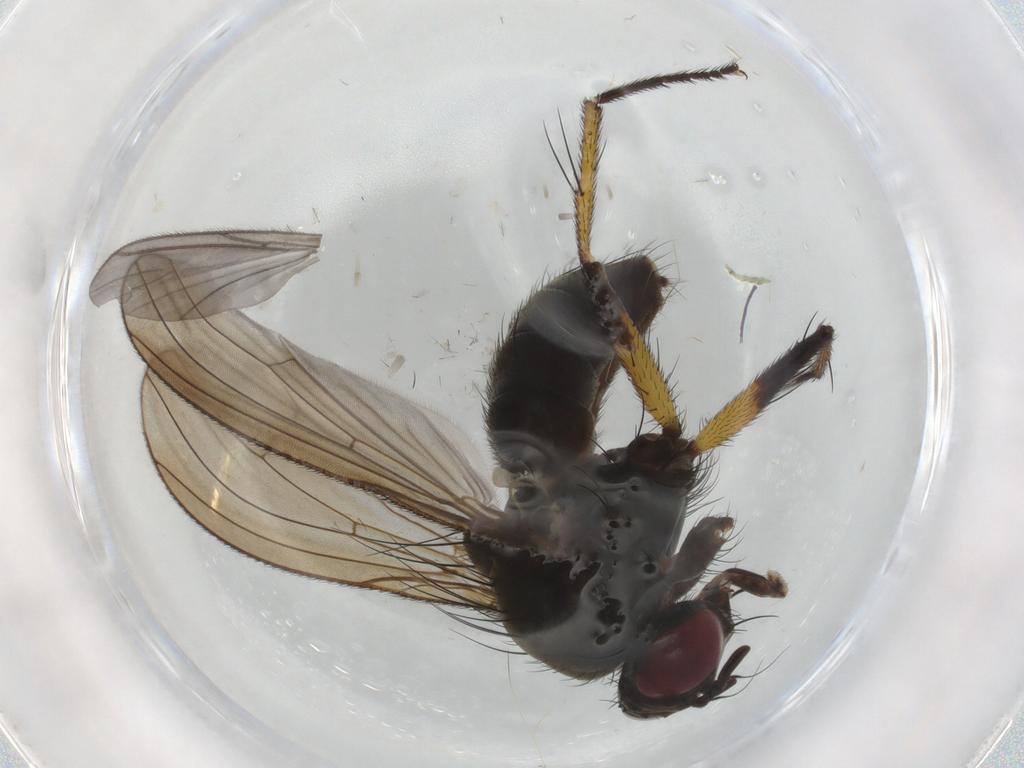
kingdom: Animalia
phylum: Arthropoda
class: Insecta
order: Diptera
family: Muscidae
